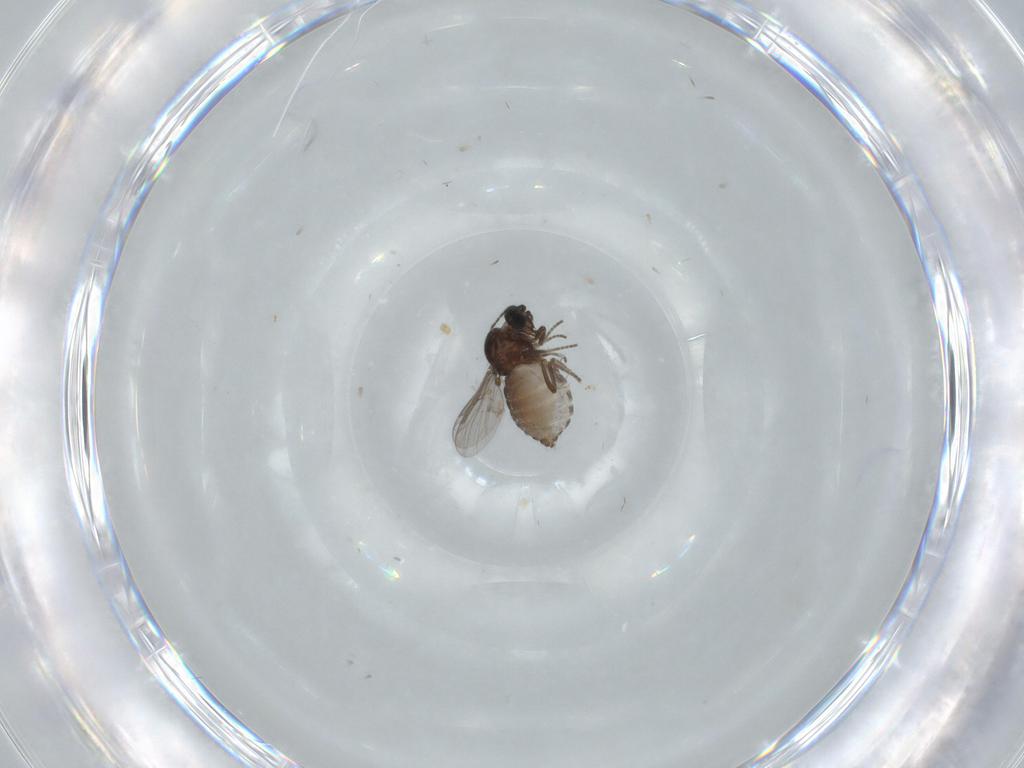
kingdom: Animalia
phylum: Arthropoda
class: Insecta
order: Diptera
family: Ceratopogonidae
